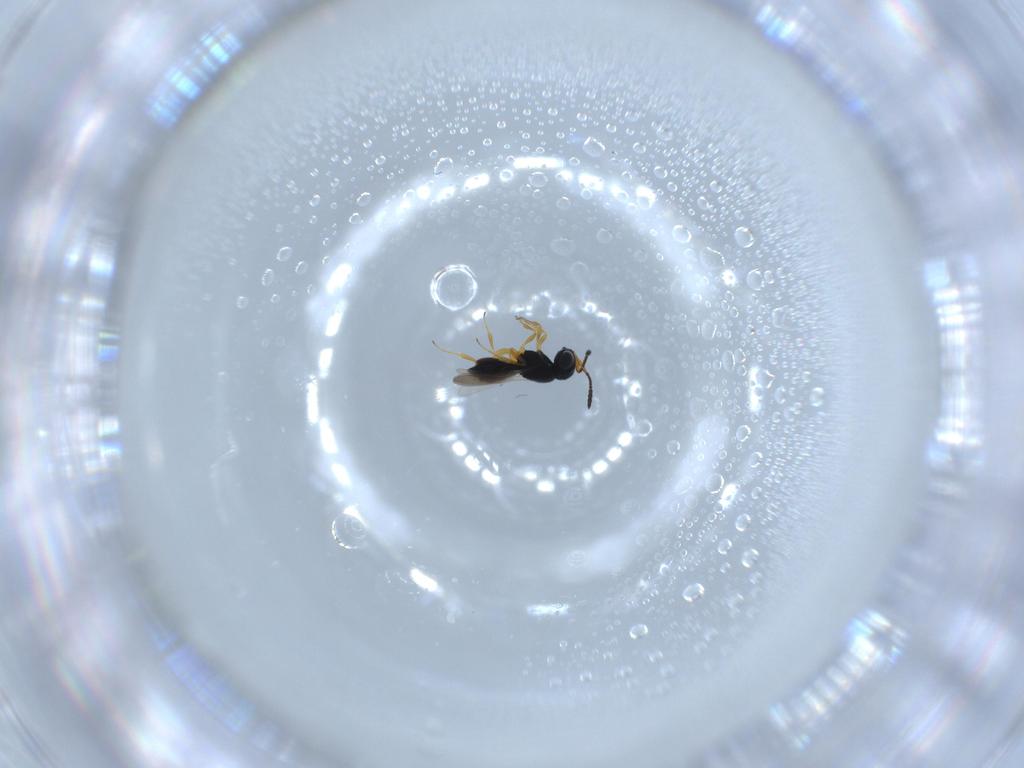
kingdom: Animalia
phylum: Arthropoda
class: Insecta
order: Hymenoptera
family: Scelionidae
